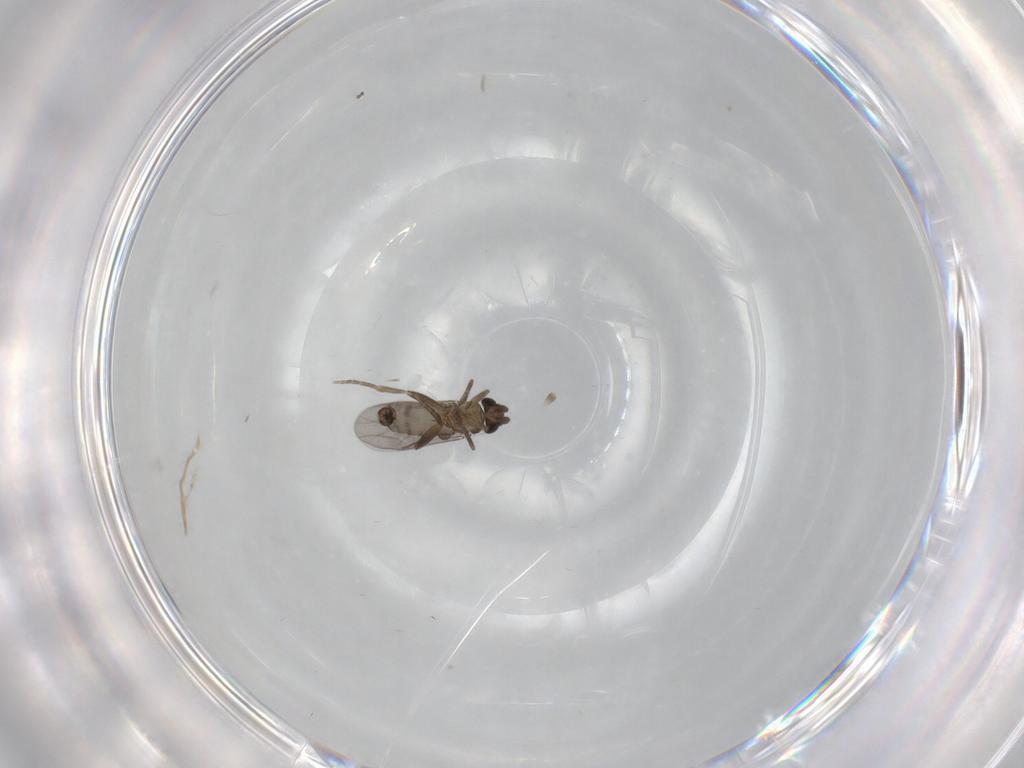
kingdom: Animalia
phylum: Arthropoda
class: Insecta
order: Diptera
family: Ceratopogonidae
